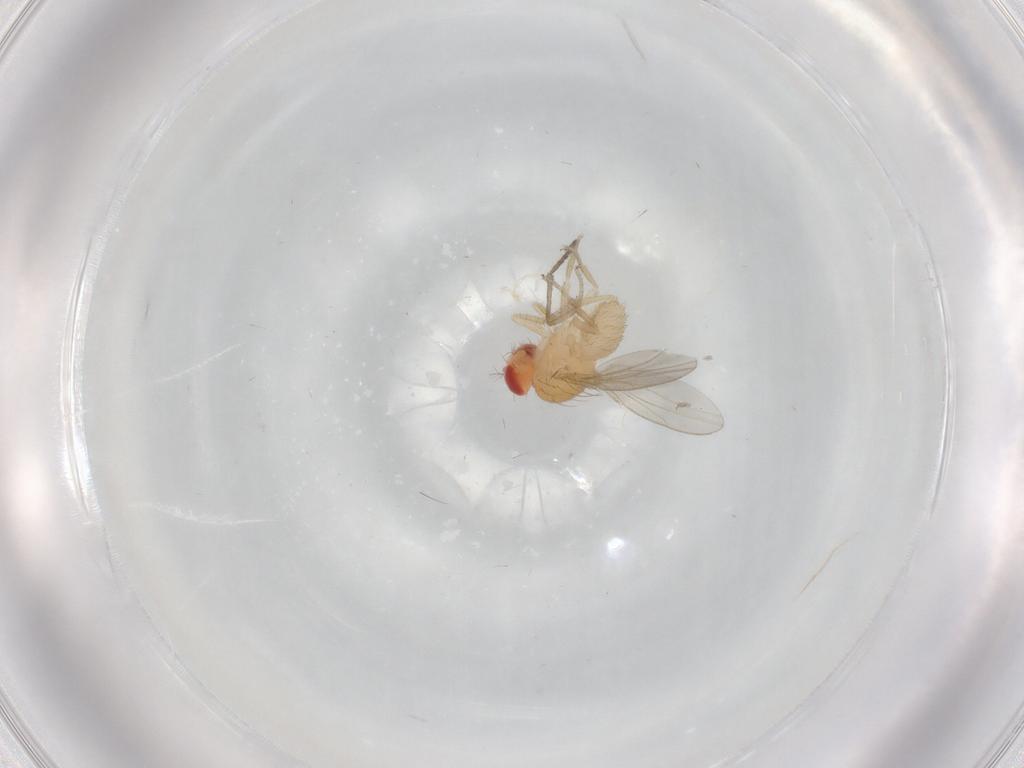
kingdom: Animalia
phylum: Arthropoda
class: Insecta
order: Diptera
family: Drosophilidae
